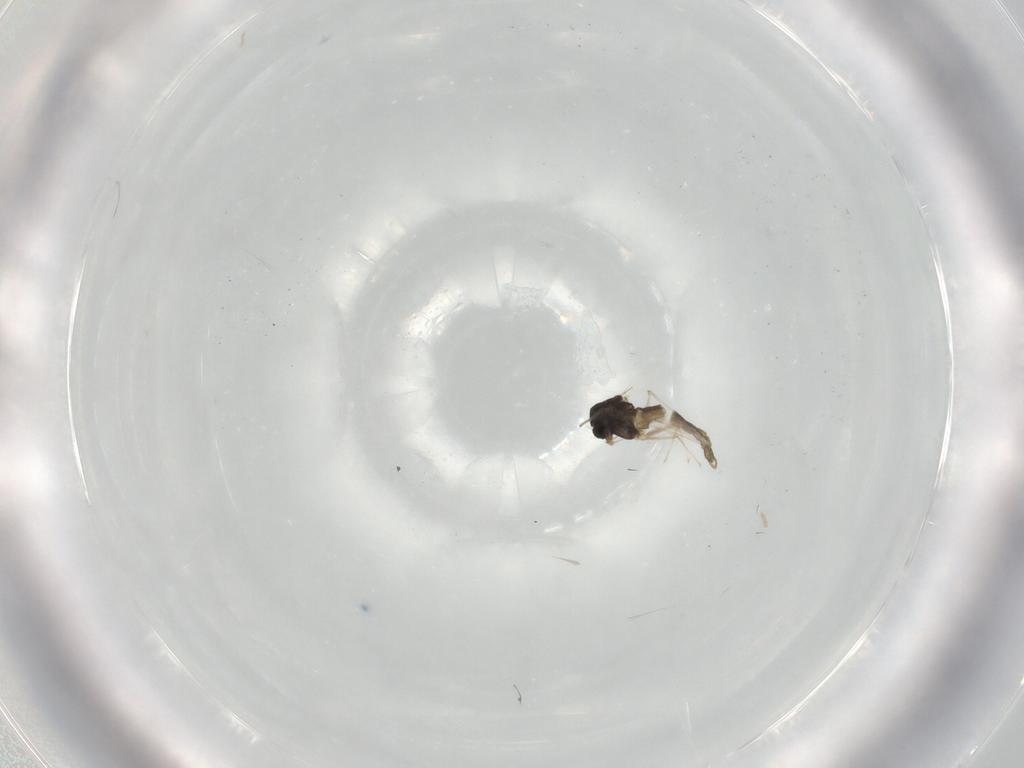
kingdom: Animalia
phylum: Arthropoda
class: Insecta
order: Diptera
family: Chironomidae
